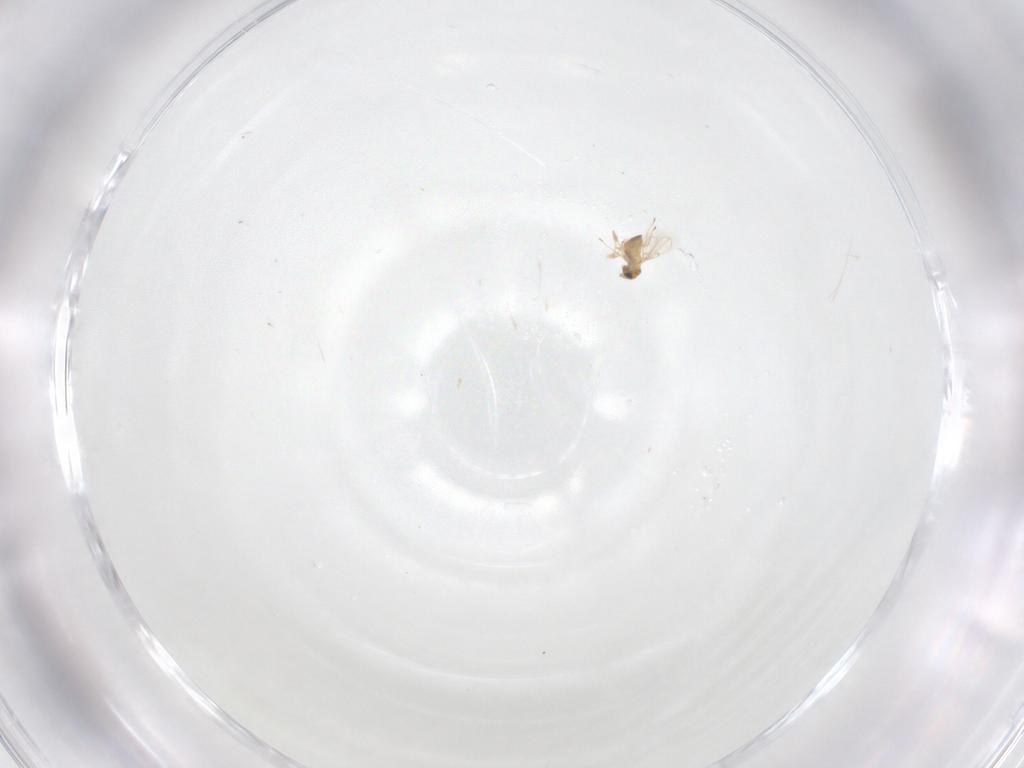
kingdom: Animalia
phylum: Arthropoda
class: Insecta
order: Hymenoptera
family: Trichogrammatidae
